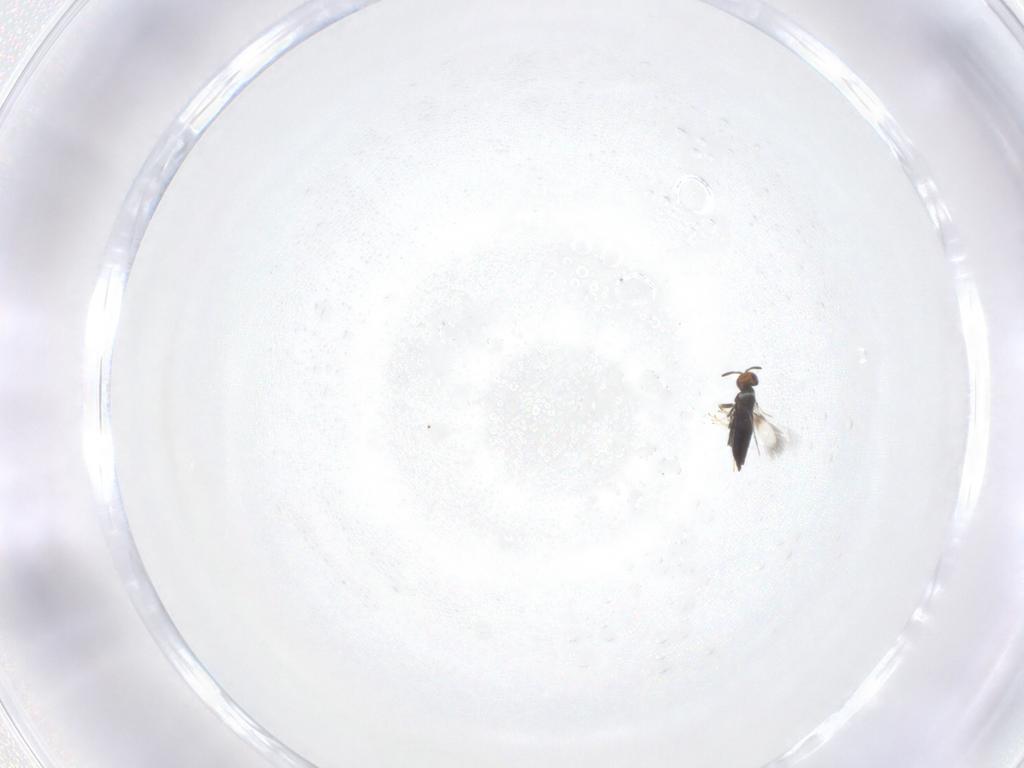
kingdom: Animalia
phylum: Arthropoda
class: Insecta
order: Hymenoptera
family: Signiphoridae
